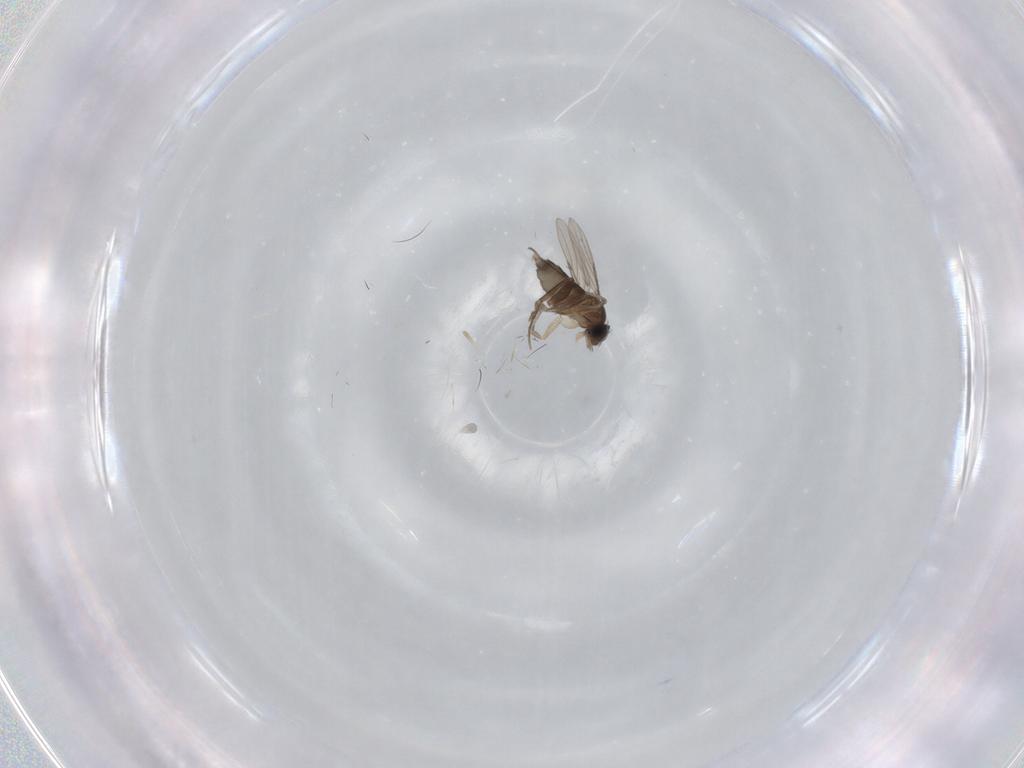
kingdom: Animalia
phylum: Arthropoda
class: Insecta
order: Diptera
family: Phoridae
